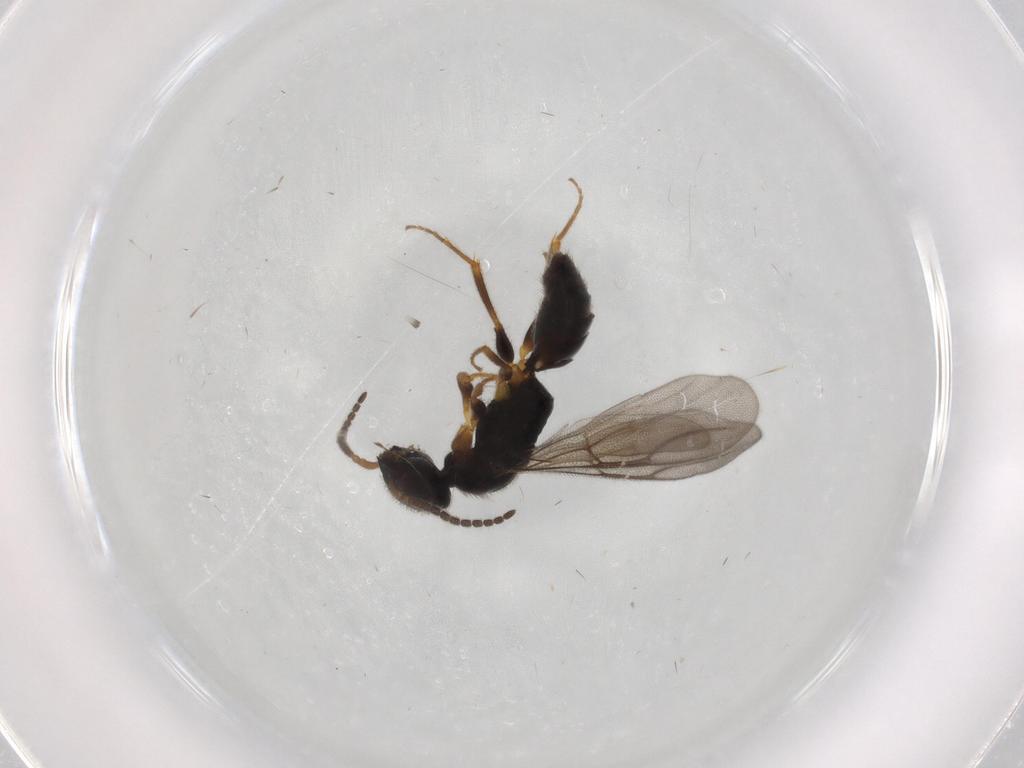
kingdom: Animalia
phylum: Arthropoda
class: Insecta
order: Hymenoptera
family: Bethylidae
